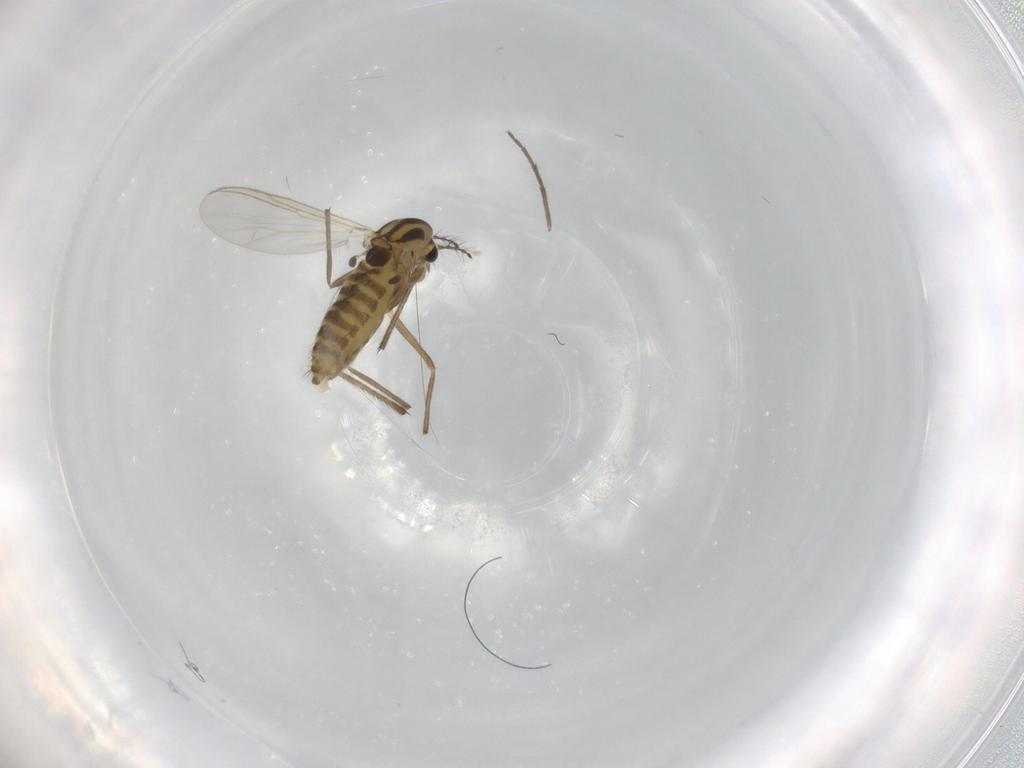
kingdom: Animalia
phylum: Arthropoda
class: Insecta
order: Diptera
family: Chironomidae
